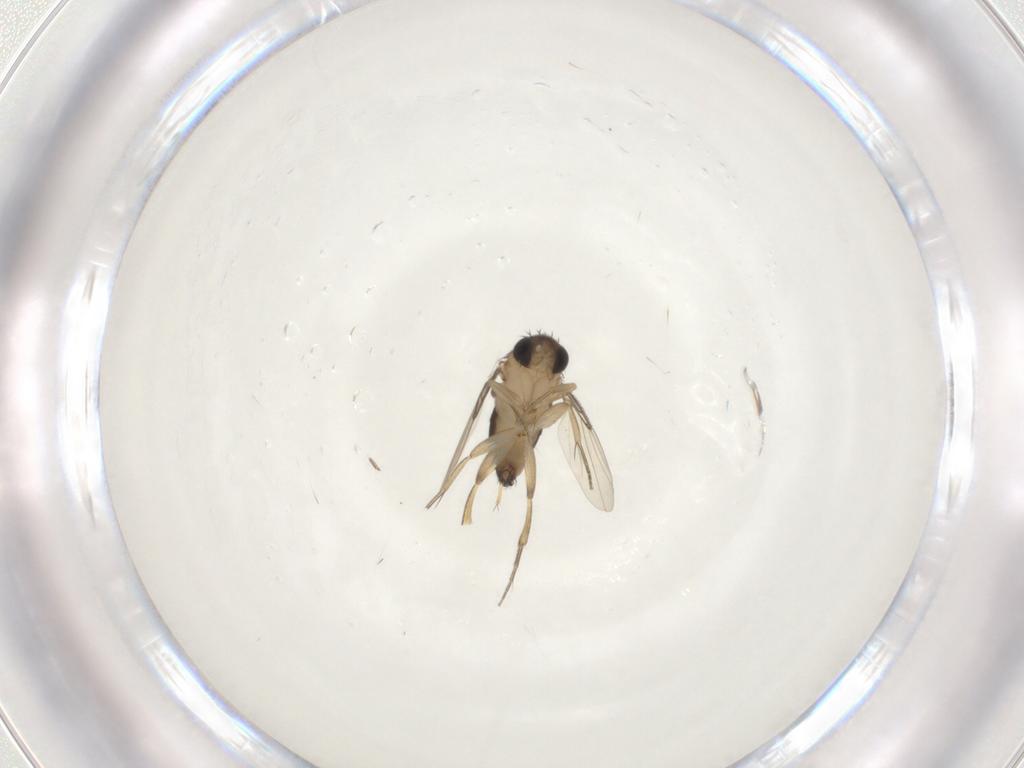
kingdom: Animalia
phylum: Arthropoda
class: Insecta
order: Diptera
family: Phoridae
